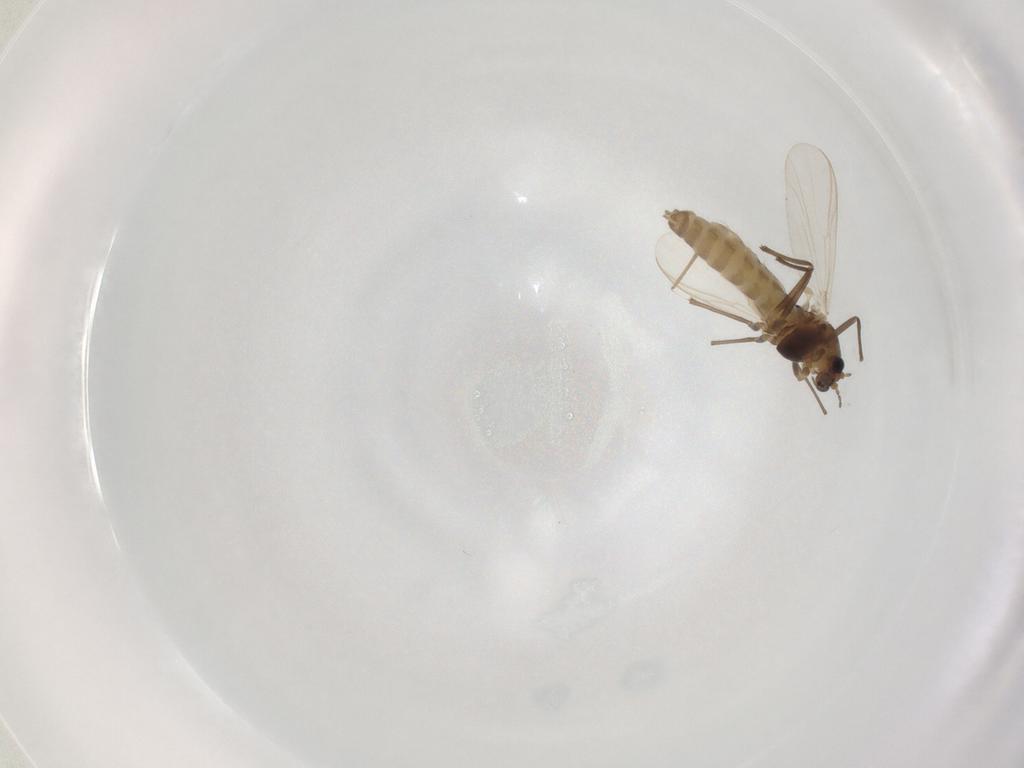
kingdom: Animalia
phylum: Arthropoda
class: Insecta
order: Diptera
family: Chironomidae
